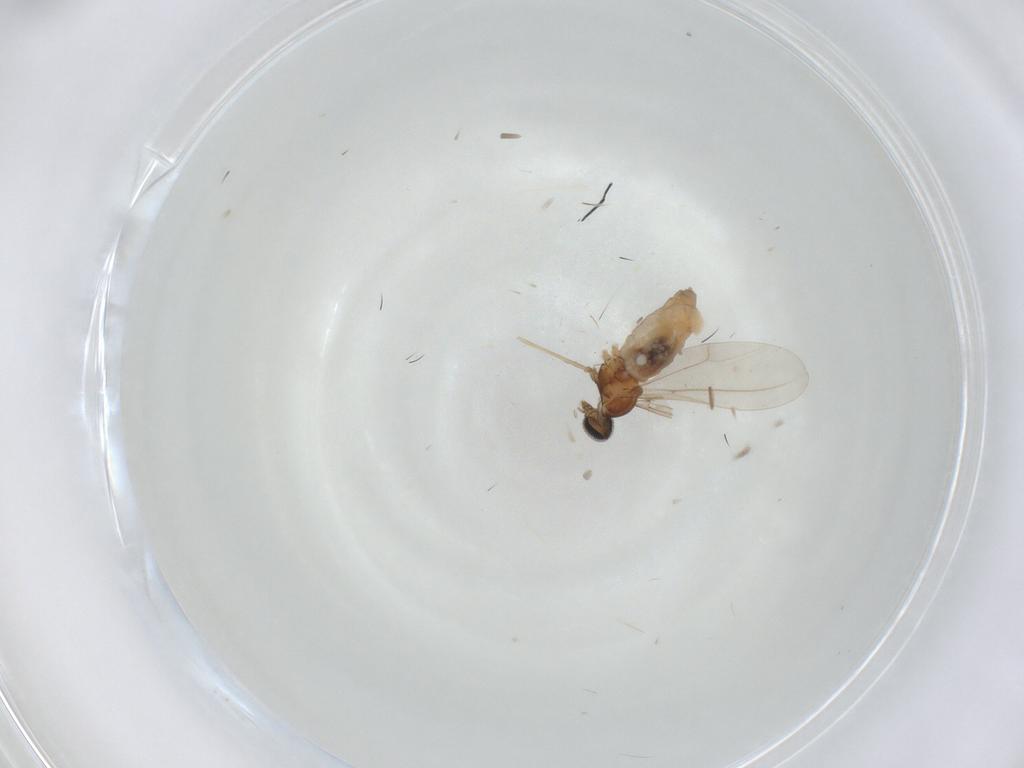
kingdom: Animalia
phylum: Arthropoda
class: Insecta
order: Diptera
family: Cecidomyiidae
